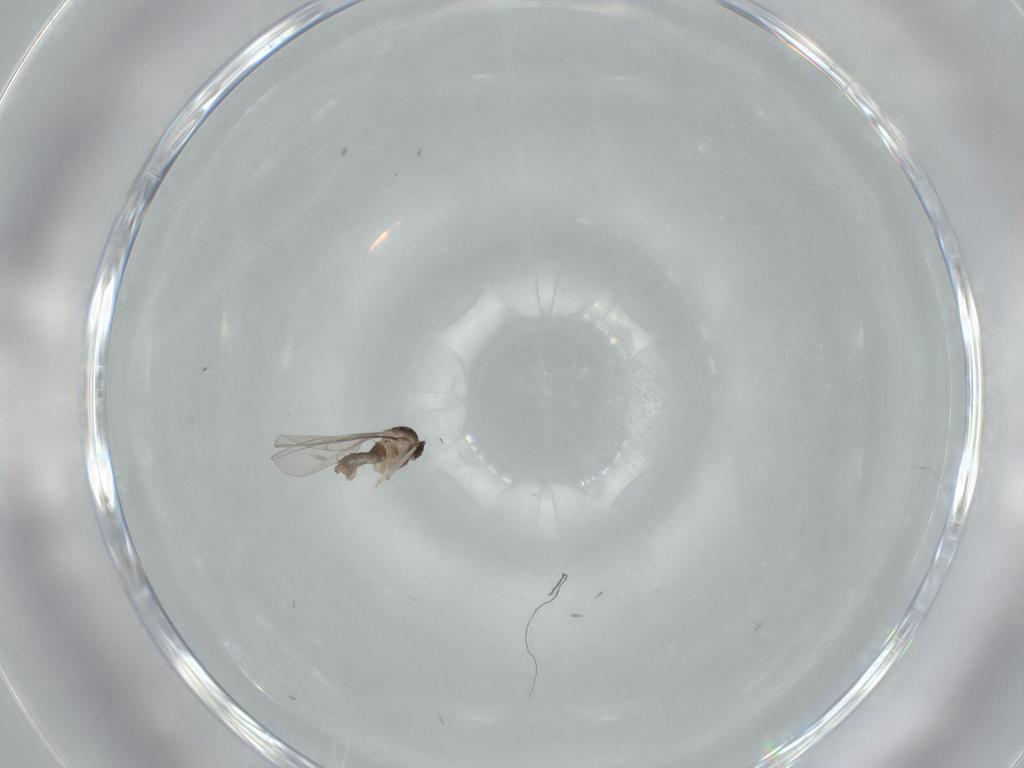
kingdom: Animalia
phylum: Arthropoda
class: Insecta
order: Diptera
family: Cecidomyiidae
